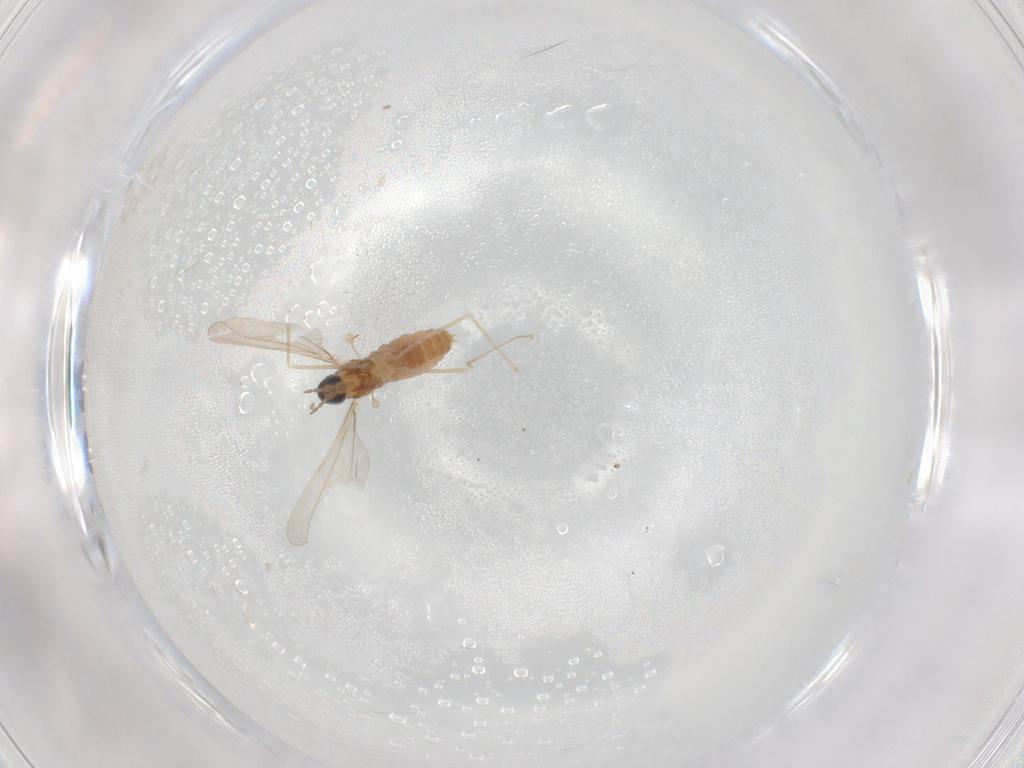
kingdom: Animalia
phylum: Arthropoda
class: Insecta
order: Diptera
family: Cecidomyiidae
